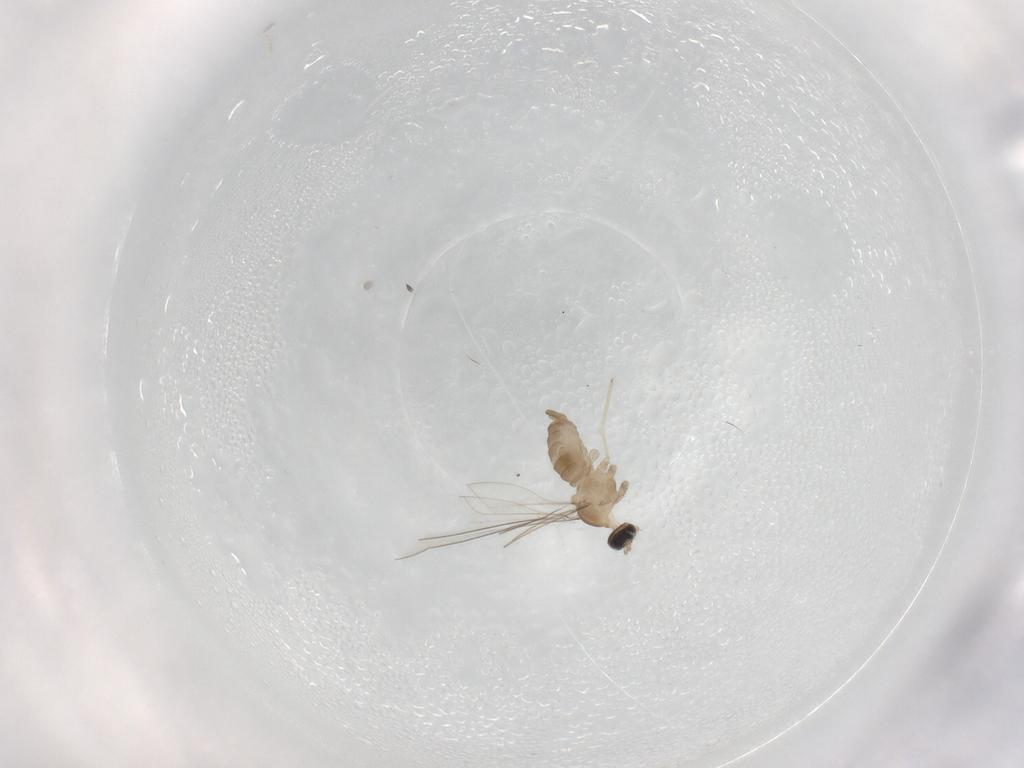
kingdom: Animalia
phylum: Arthropoda
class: Insecta
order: Diptera
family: Cecidomyiidae
